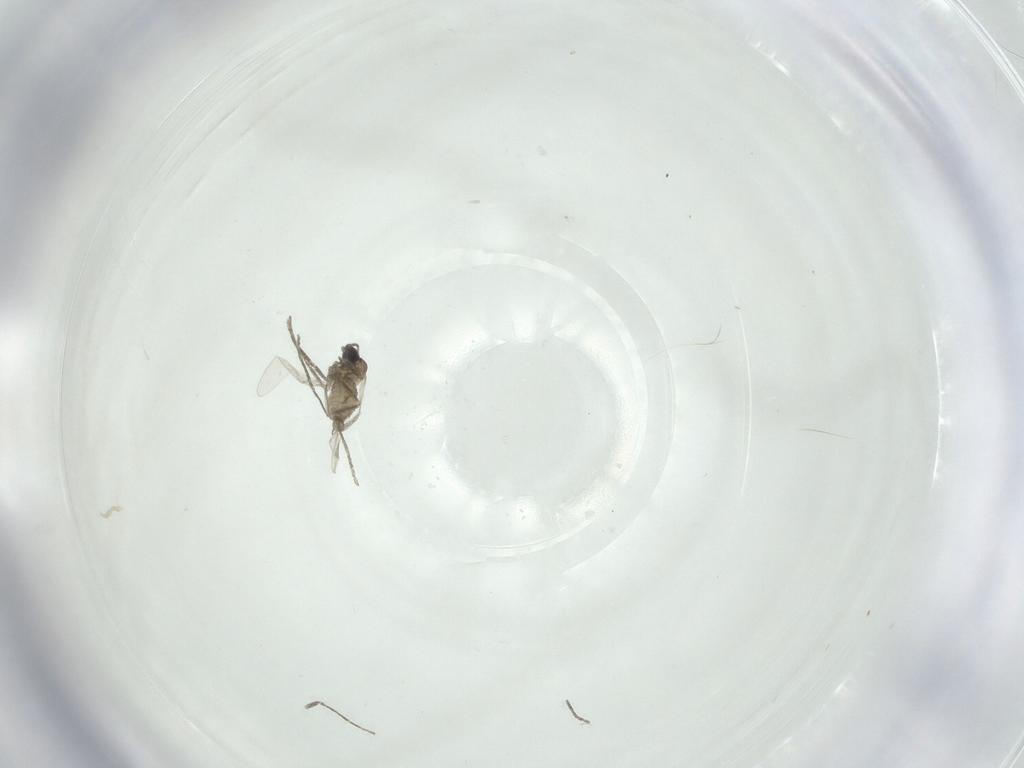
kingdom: Animalia
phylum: Arthropoda
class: Insecta
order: Diptera
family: Cecidomyiidae
